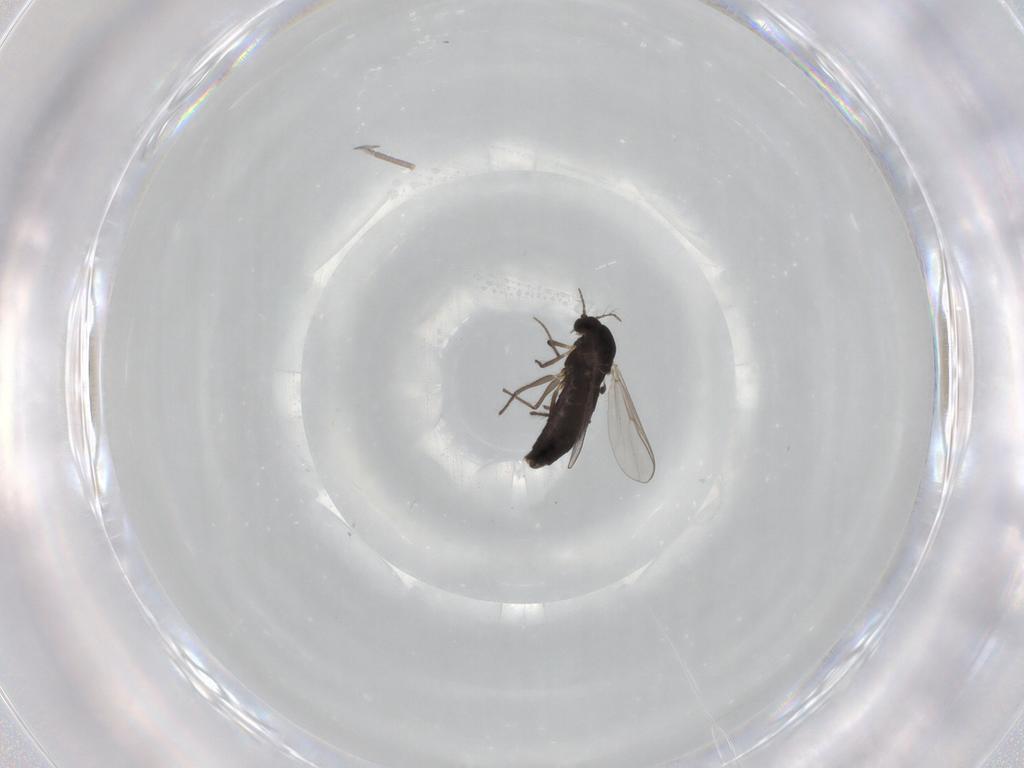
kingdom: Animalia
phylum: Arthropoda
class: Insecta
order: Diptera
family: Chironomidae
